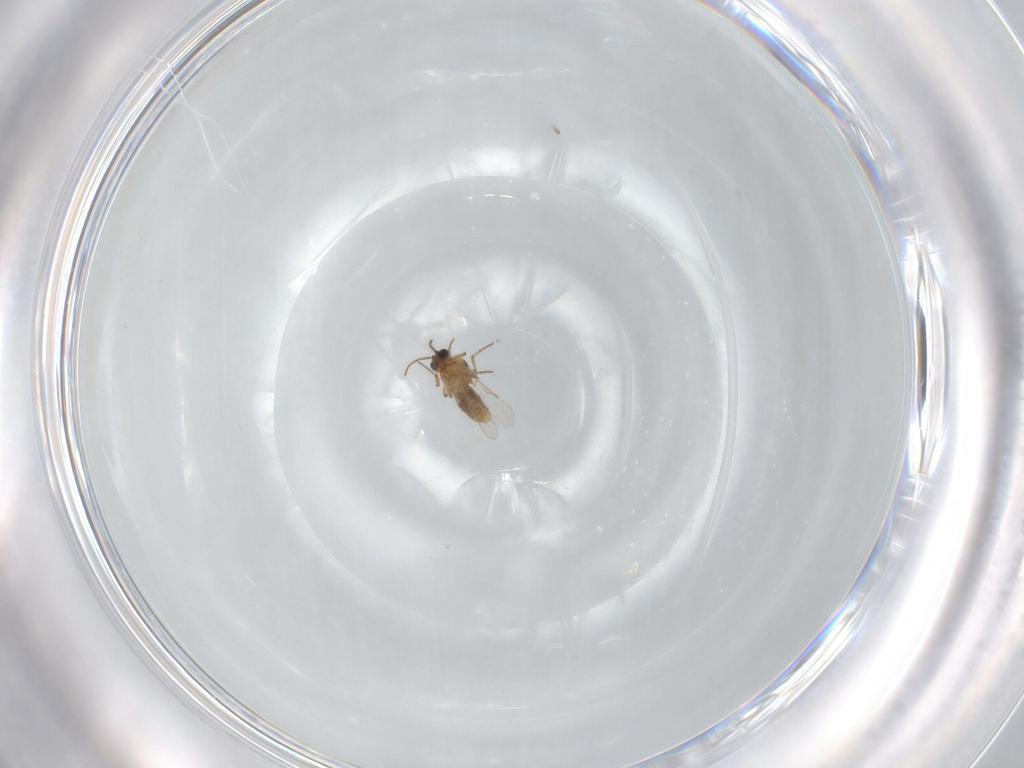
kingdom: Animalia
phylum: Arthropoda
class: Insecta
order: Diptera
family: Ceratopogonidae
